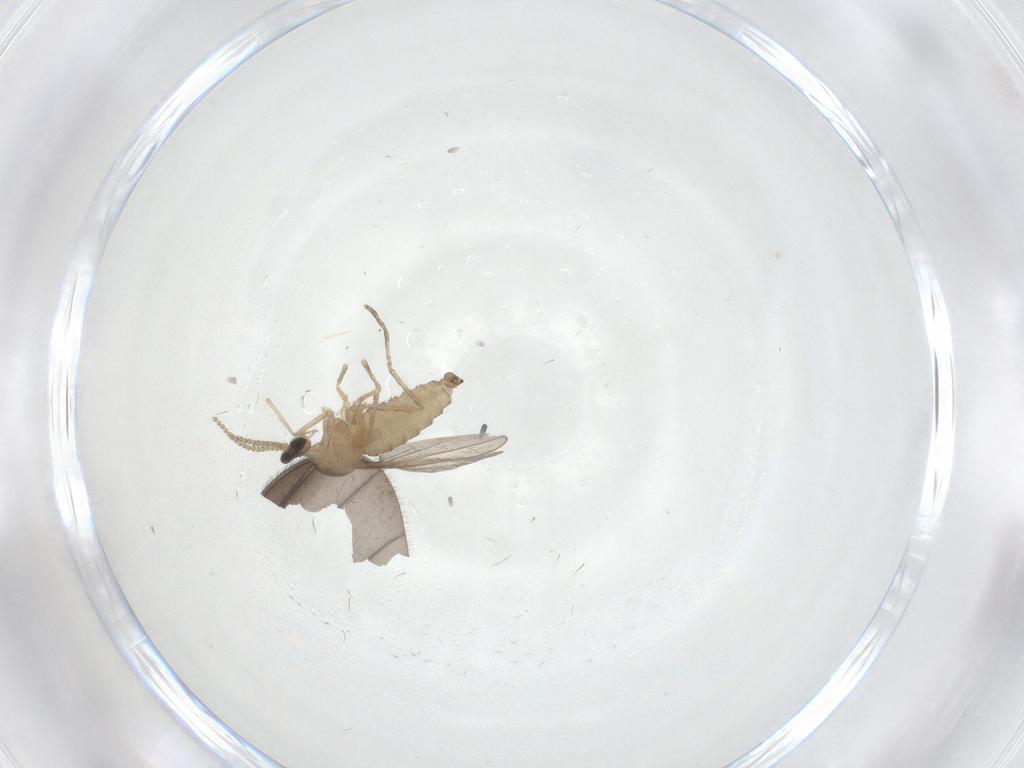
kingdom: Animalia
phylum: Arthropoda
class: Insecta
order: Diptera
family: Cecidomyiidae
